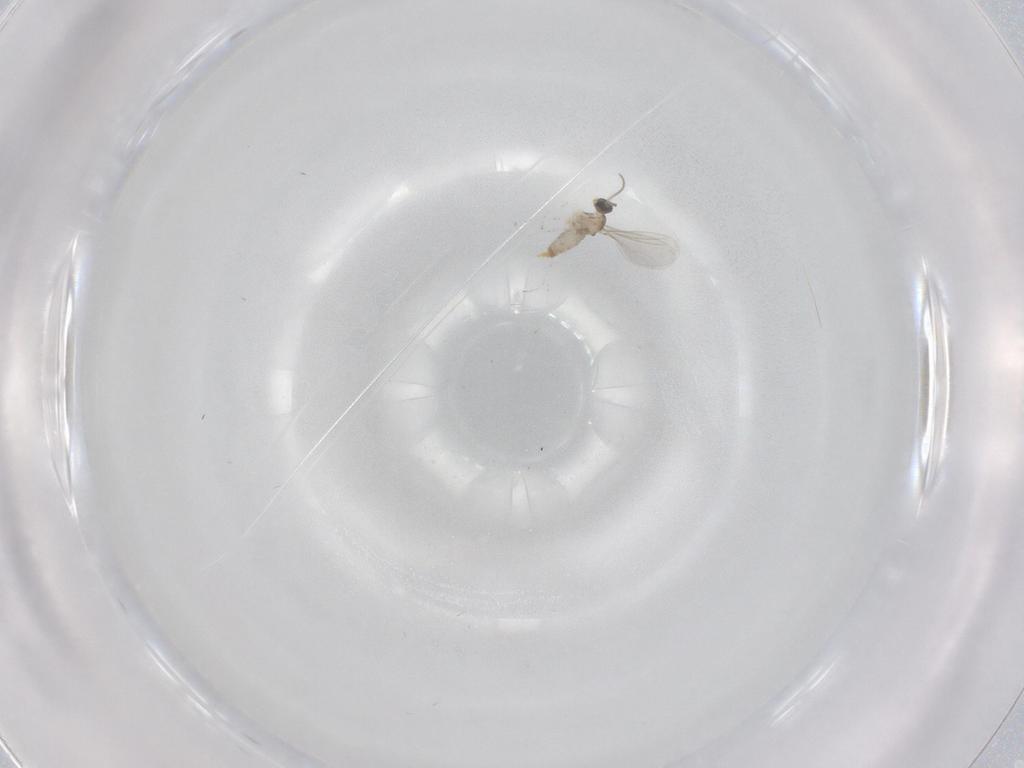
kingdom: Animalia
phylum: Arthropoda
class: Insecta
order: Diptera
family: Cecidomyiidae
